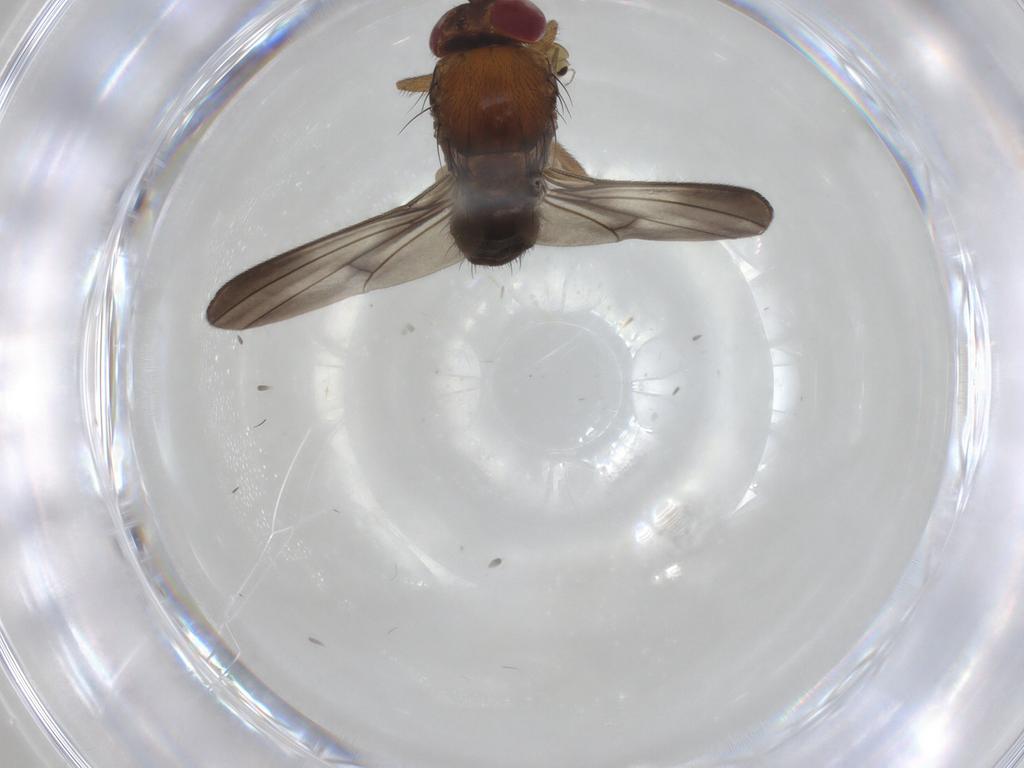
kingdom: Animalia
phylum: Arthropoda
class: Insecta
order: Diptera
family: Drosophilidae
